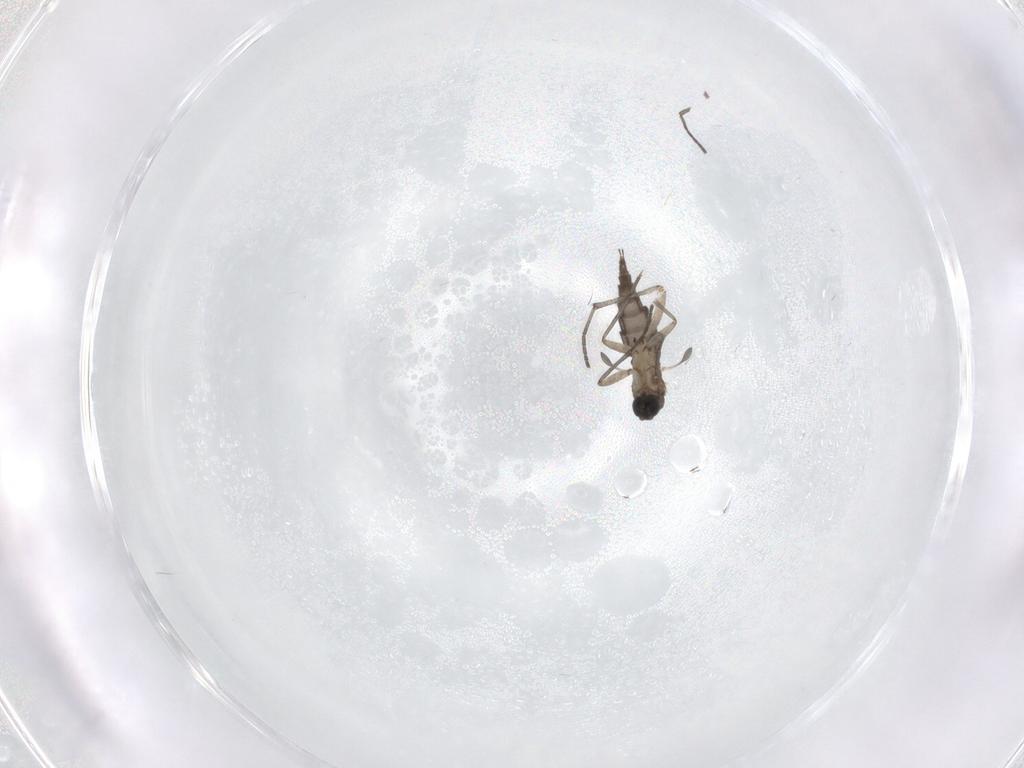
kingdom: Animalia
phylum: Arthropoda
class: Insecta
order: Diptera
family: Sciaridae
